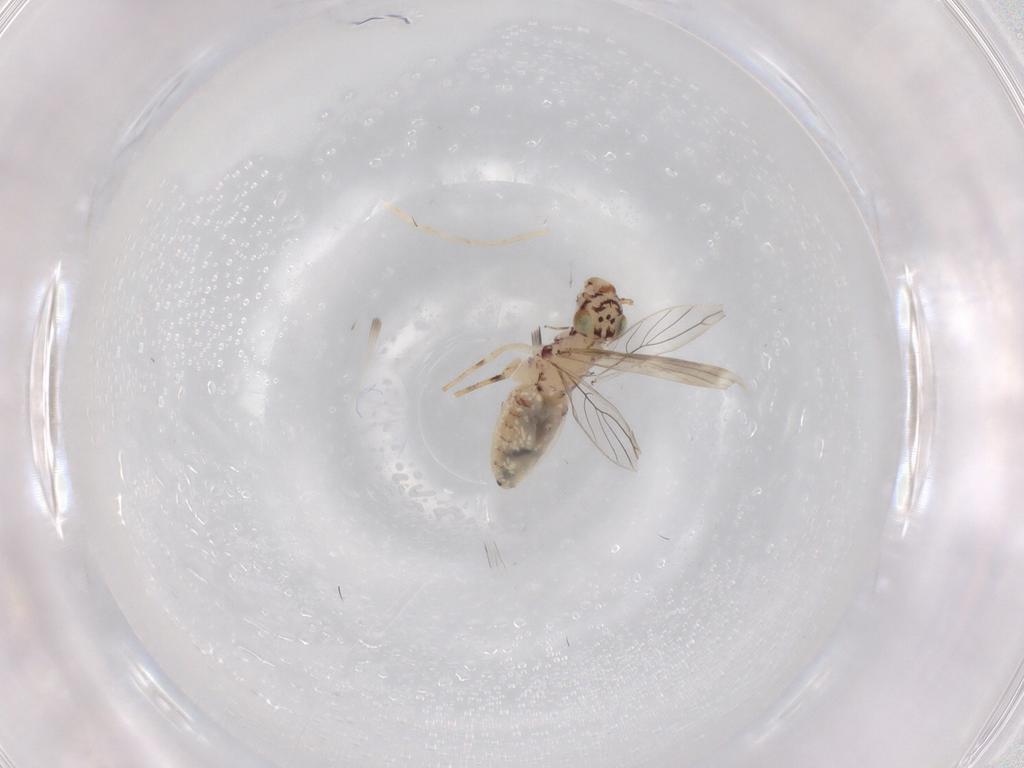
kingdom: Animalia
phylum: Arthropoda
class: Insecta
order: Psocodea
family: Lepidopsocidae
